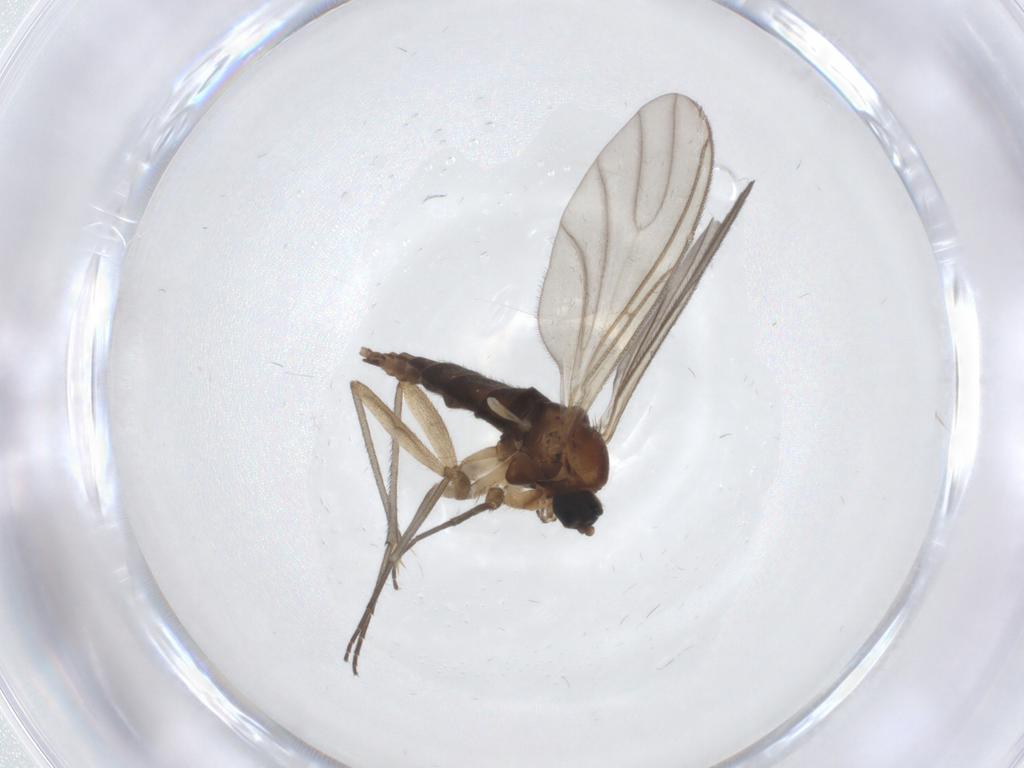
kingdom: Animalia
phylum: Arthropoda
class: Insecta
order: Diptera
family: Sciaridae
